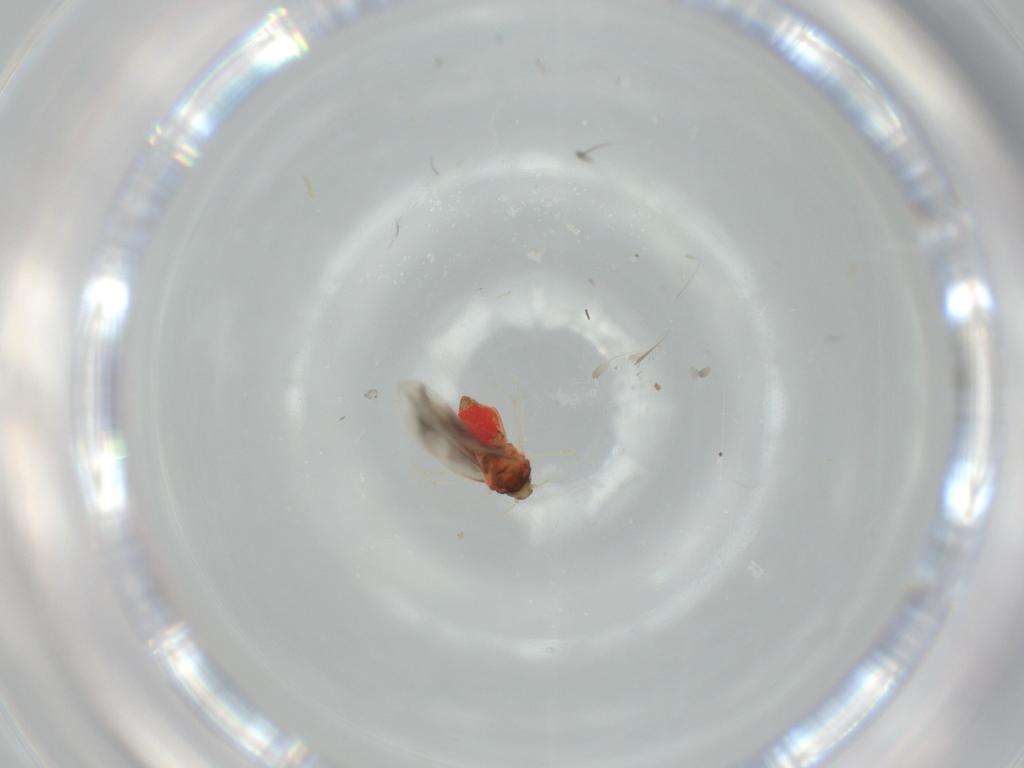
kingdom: Animalia
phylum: Arthropoda
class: Insecta
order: Hemiptera
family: Aleyrodidae
